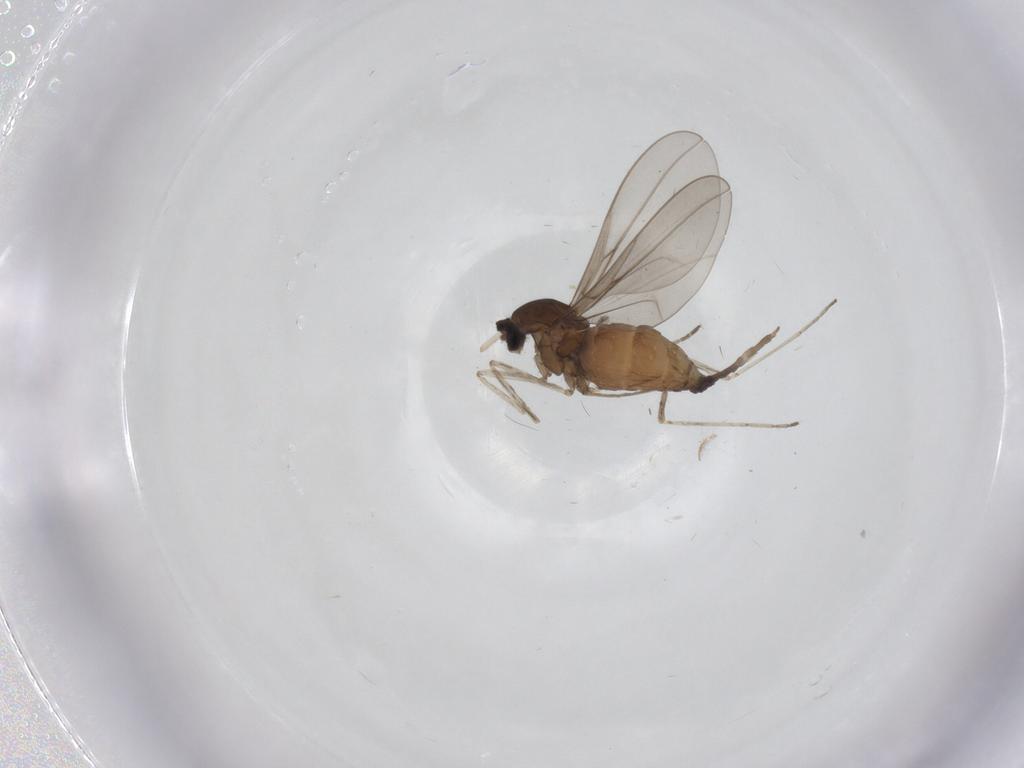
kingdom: Animalia
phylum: Arthropoda
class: Insecta
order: Diptera
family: Cecidomyiidae
